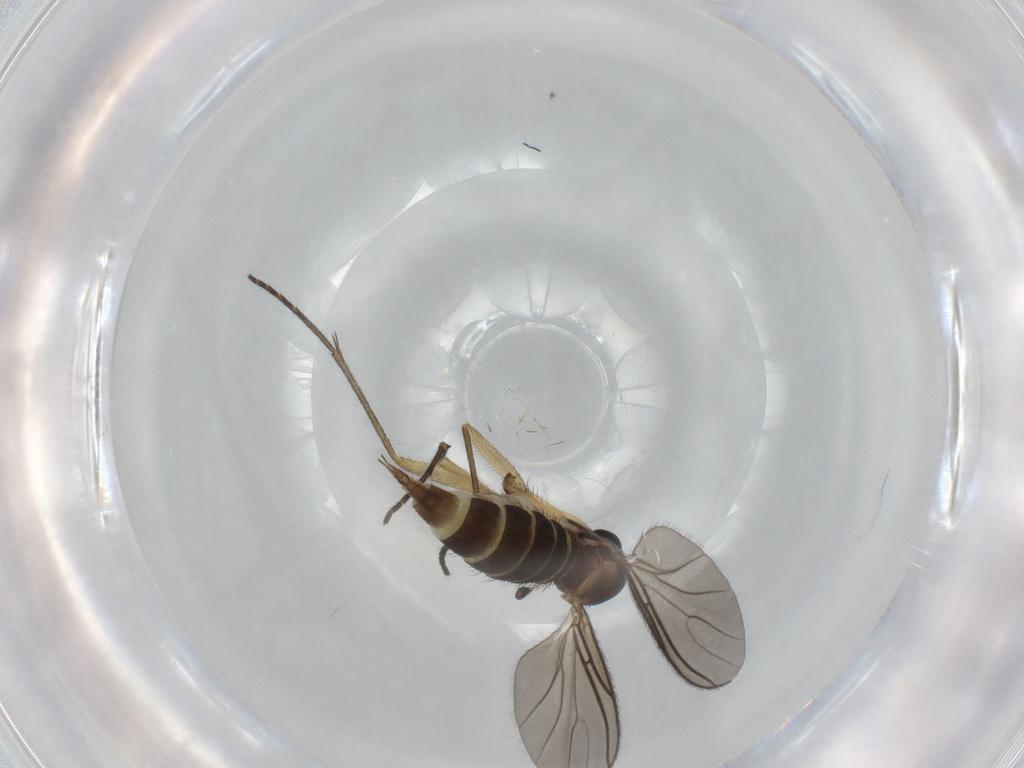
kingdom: Animalia
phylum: Arthropoda
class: Insecta
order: Diptera
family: Sciaridae
